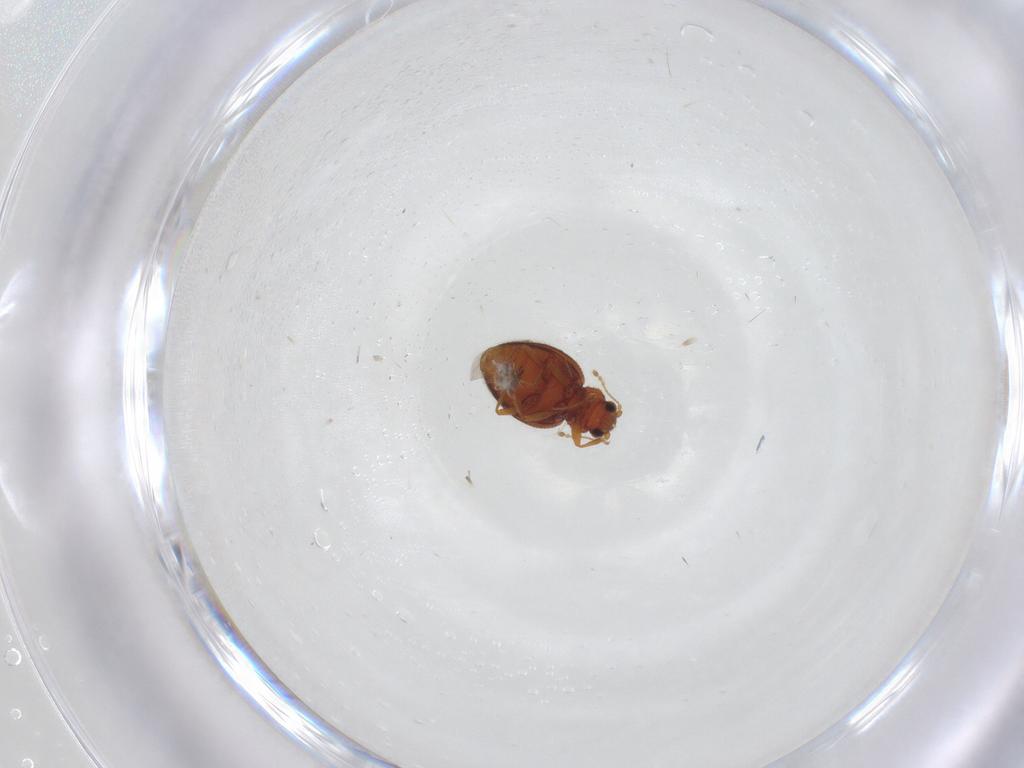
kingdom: Animalia
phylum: Arthropoda
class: Insecta
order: Coleoptera
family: Latridiidae
